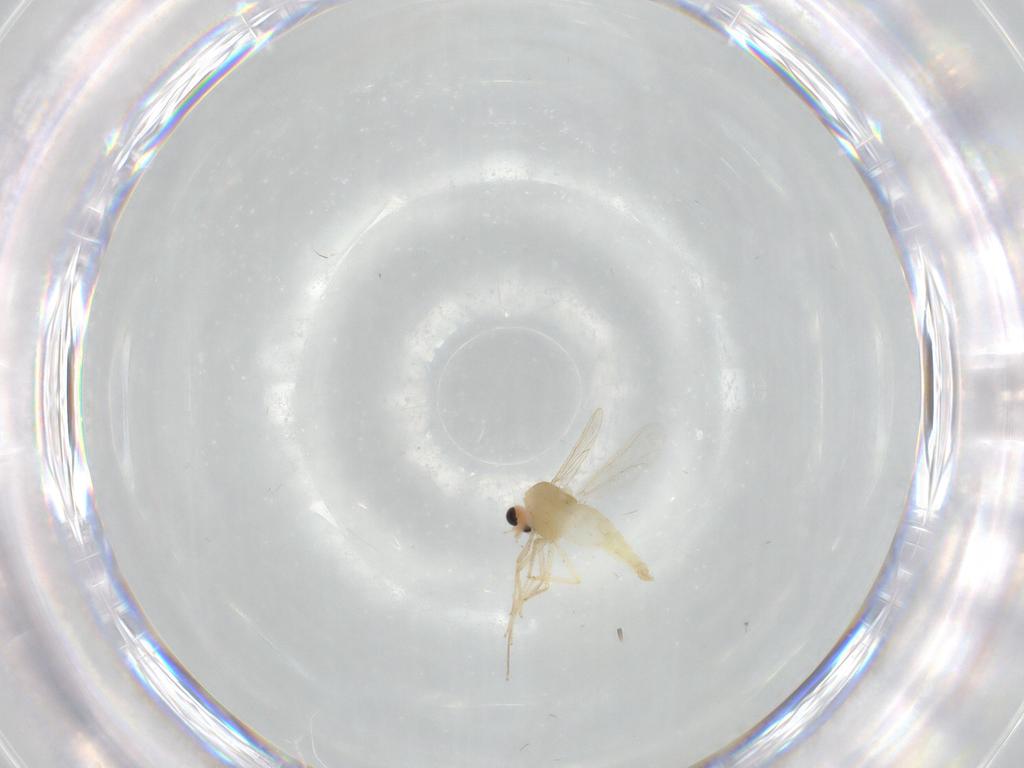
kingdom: Animalia
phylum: Arthropoda
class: Insecta
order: Diptera
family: Chironomidae
